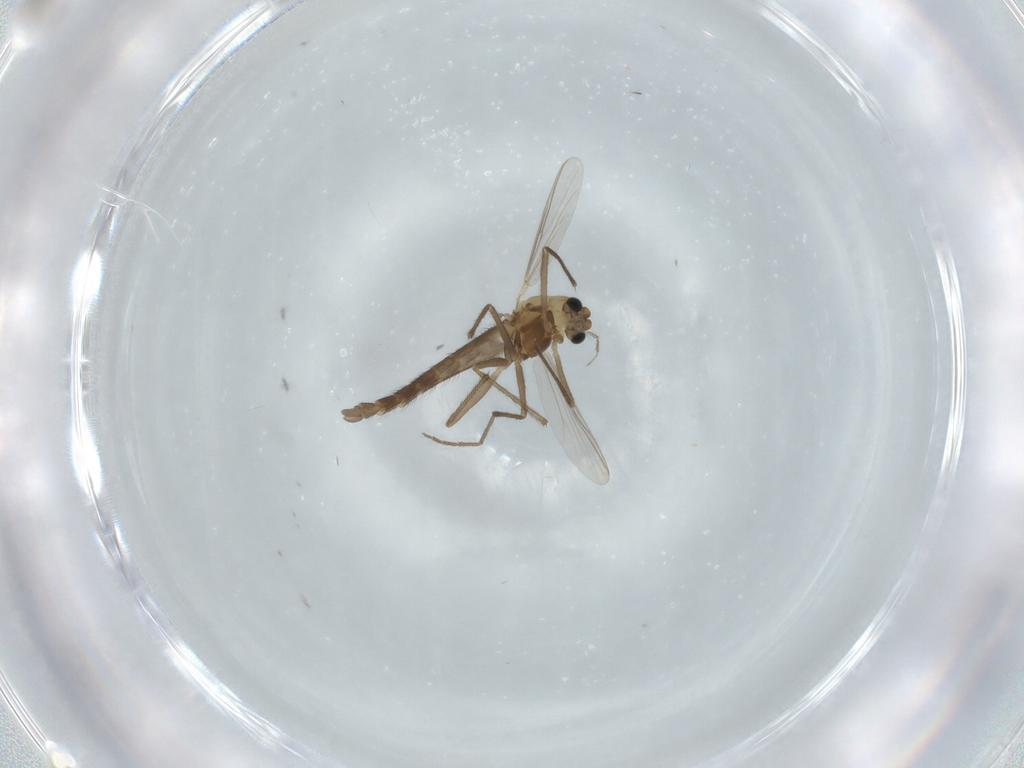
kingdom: Animalia
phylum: Arthropoda
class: Insecta
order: Diptera
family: Chironomidae
